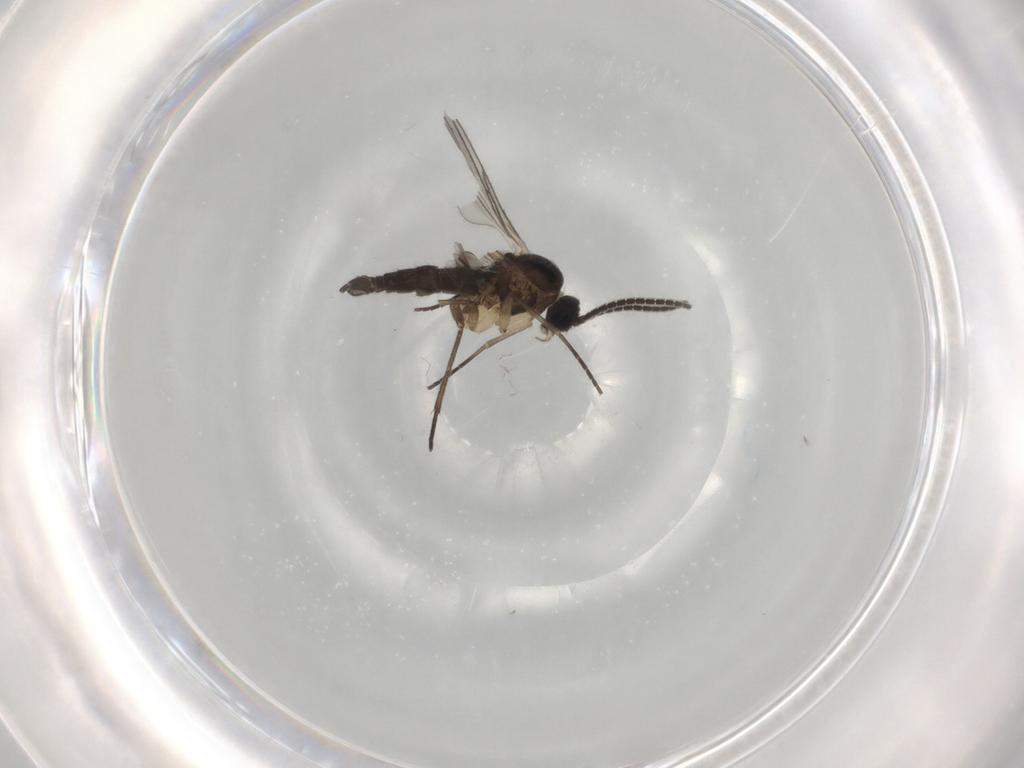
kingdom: Animalia
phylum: Arthropoda
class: Insecta
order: Diptera
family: Sciaridae
